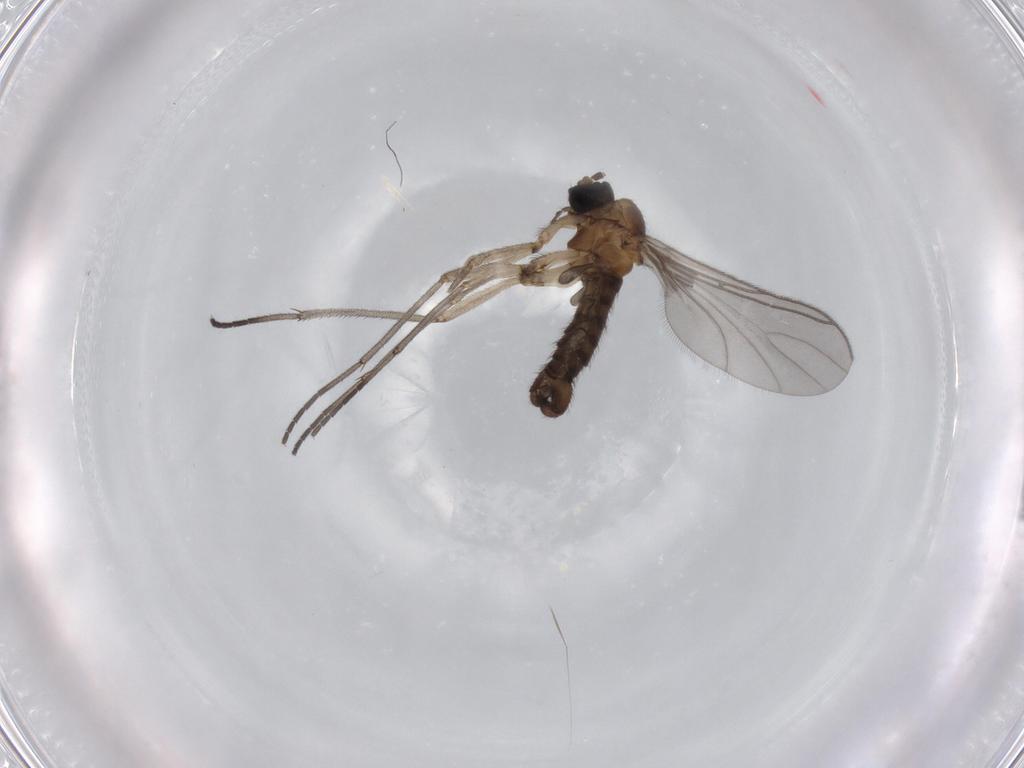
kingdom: Animalia
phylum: Arthropoda
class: Insecta
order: Diptera
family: Sciaridae
